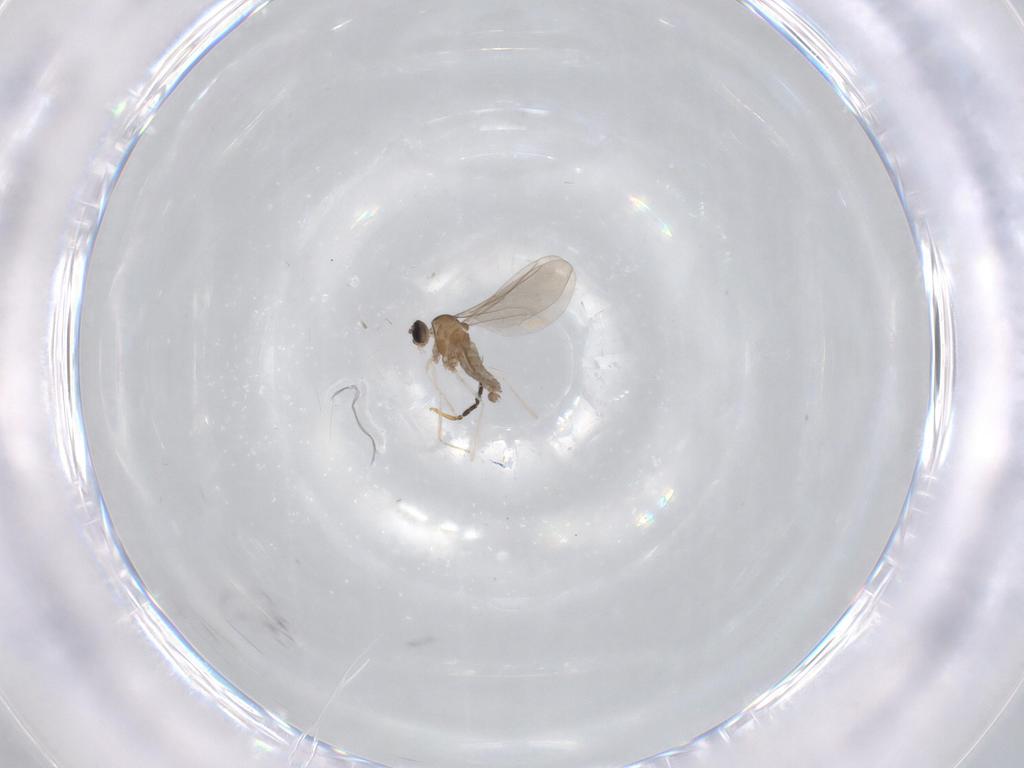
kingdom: Animalia
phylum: Arthropoda
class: Insecta
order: Diptera
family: Cecidomyiidae
